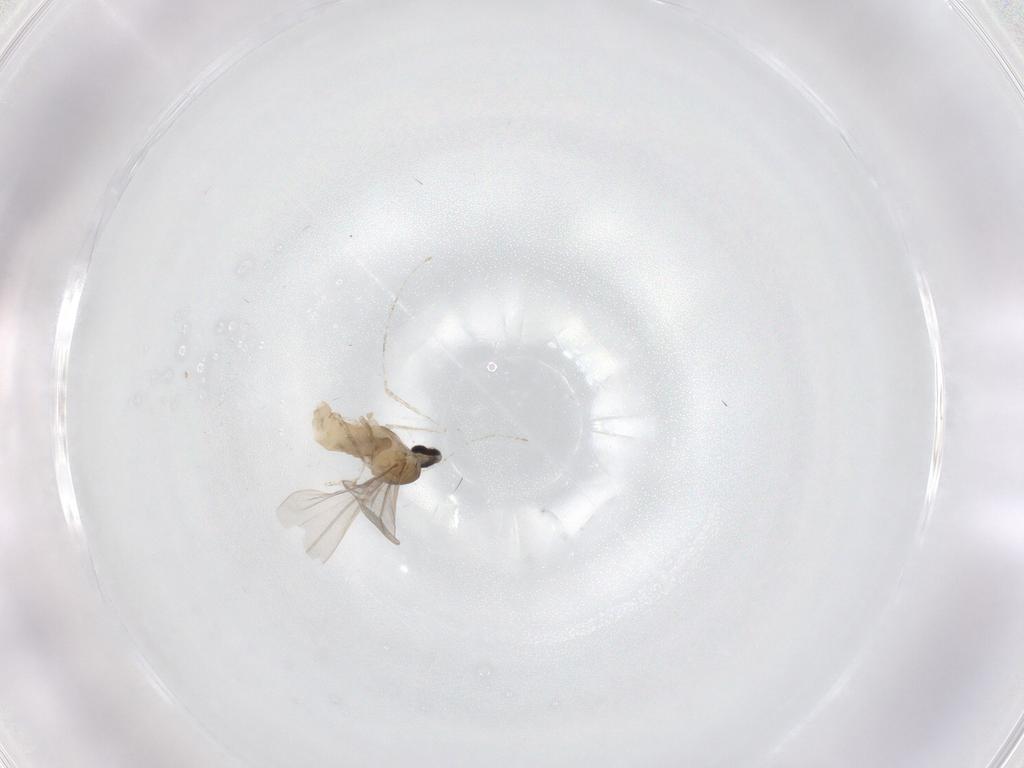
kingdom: Animalia
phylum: Arthropoda
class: Insecta
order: Diptera
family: Cecidomyiidae
